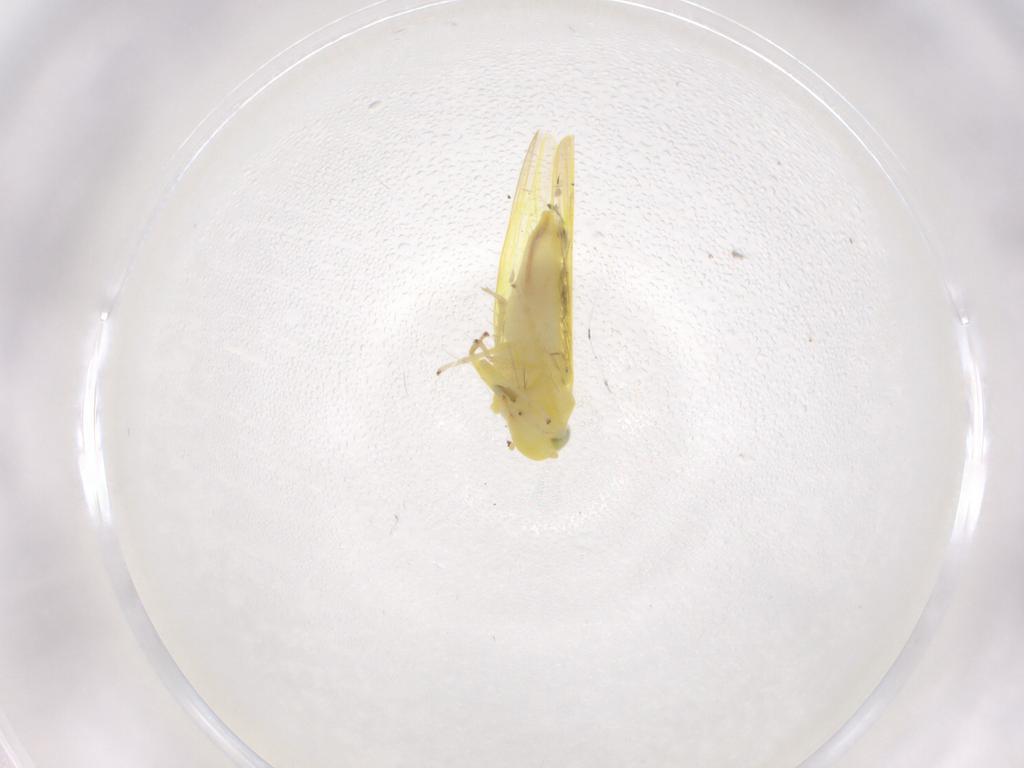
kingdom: Animalia
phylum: Arthropoda
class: Insecta
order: Hemiptera
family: Cicadellidae
